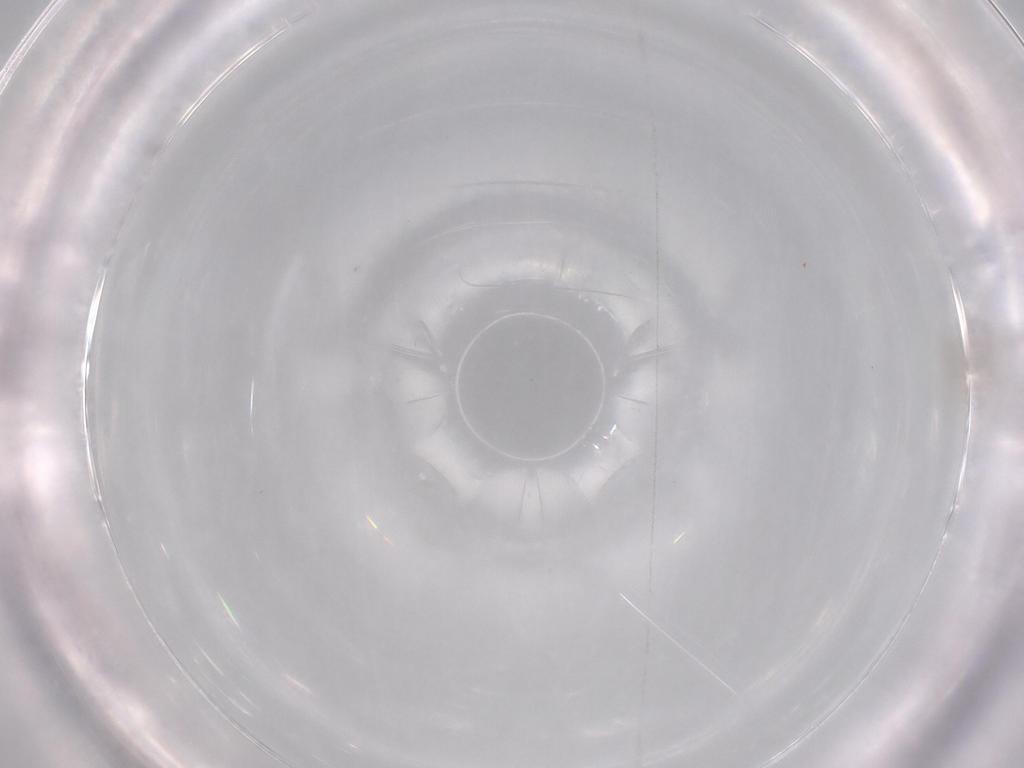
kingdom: Animalia
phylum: Arthropoda
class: Insecta
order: Diptera
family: Cecidomyiidae
